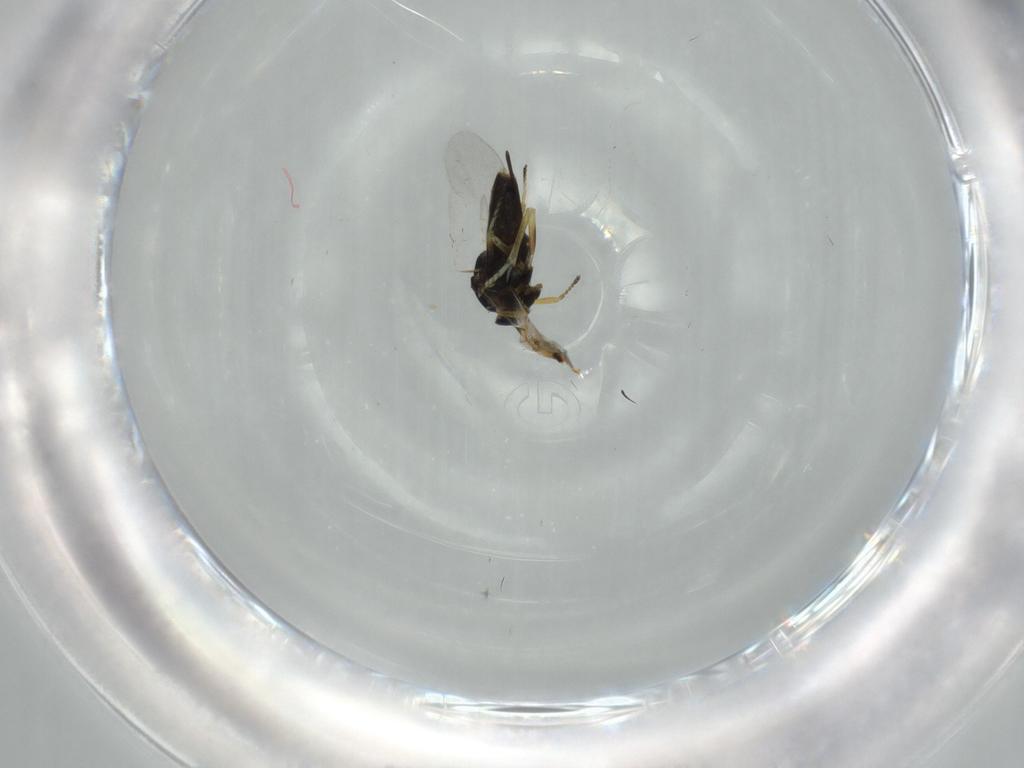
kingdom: Animalia
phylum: Arthropoda
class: Insecta
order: Diptera
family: Culicidae
